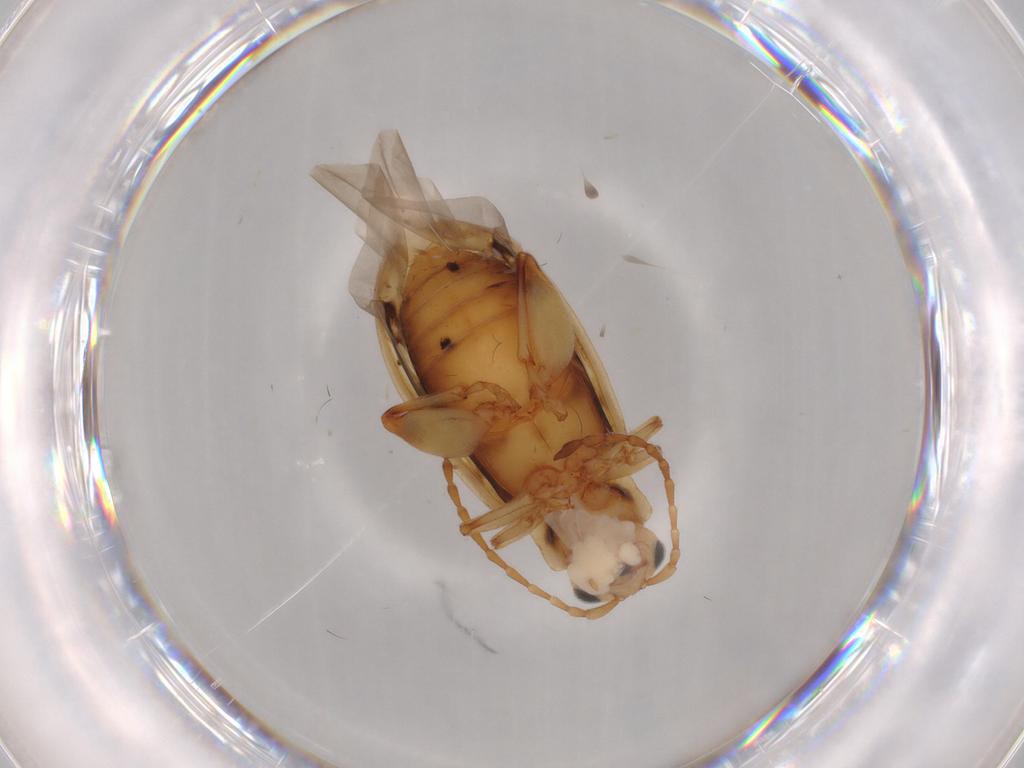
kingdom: Animalia
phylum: Arthropoda
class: Insecta
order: Coleoptera
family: Chrysomelidae
